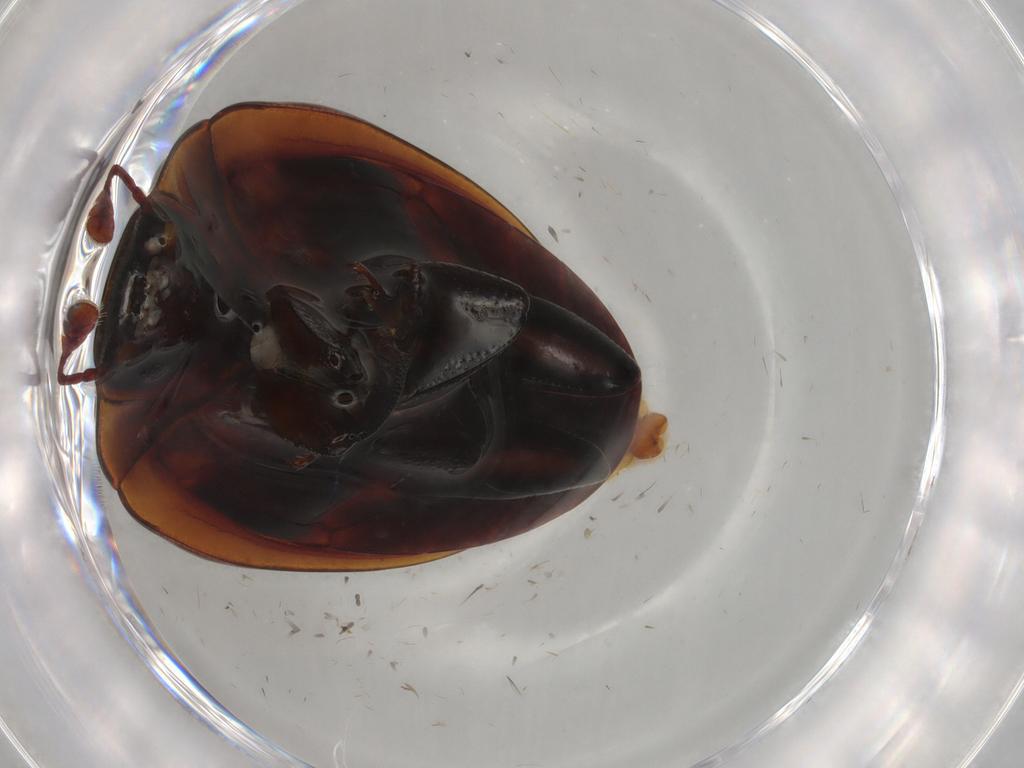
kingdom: Animalia
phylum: Arthropoda
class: Insecta
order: Coleoptera
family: Zopheridae
